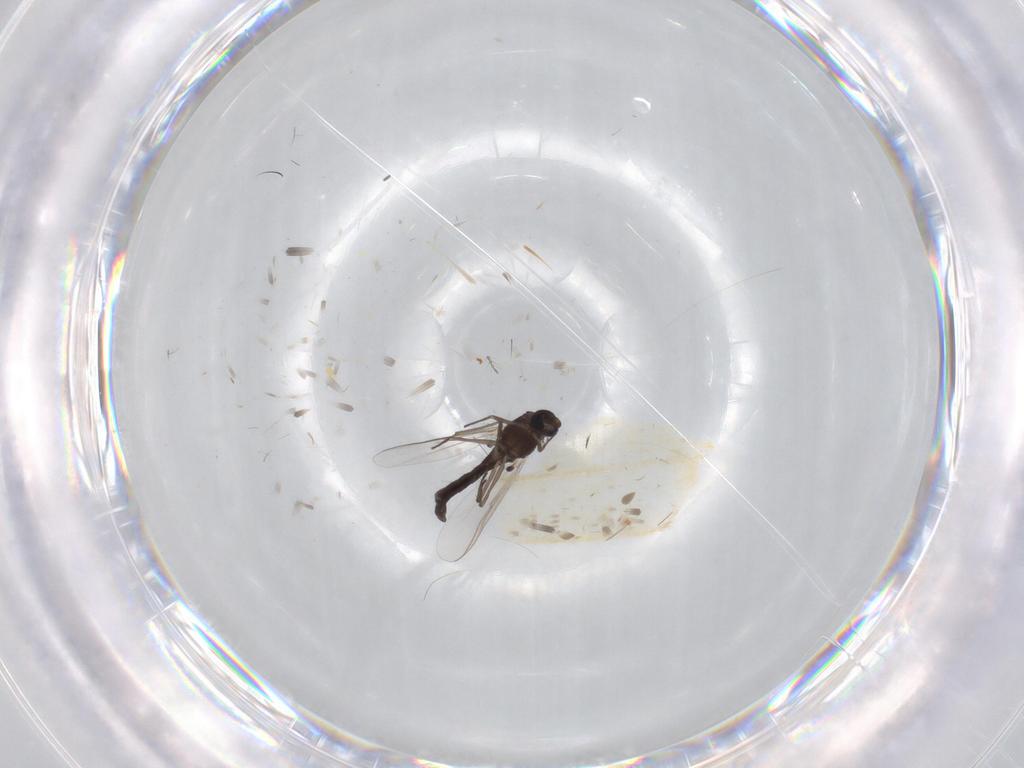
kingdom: Animalia
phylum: Arthropoda
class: Insecta
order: Diptera
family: Chironomidae
